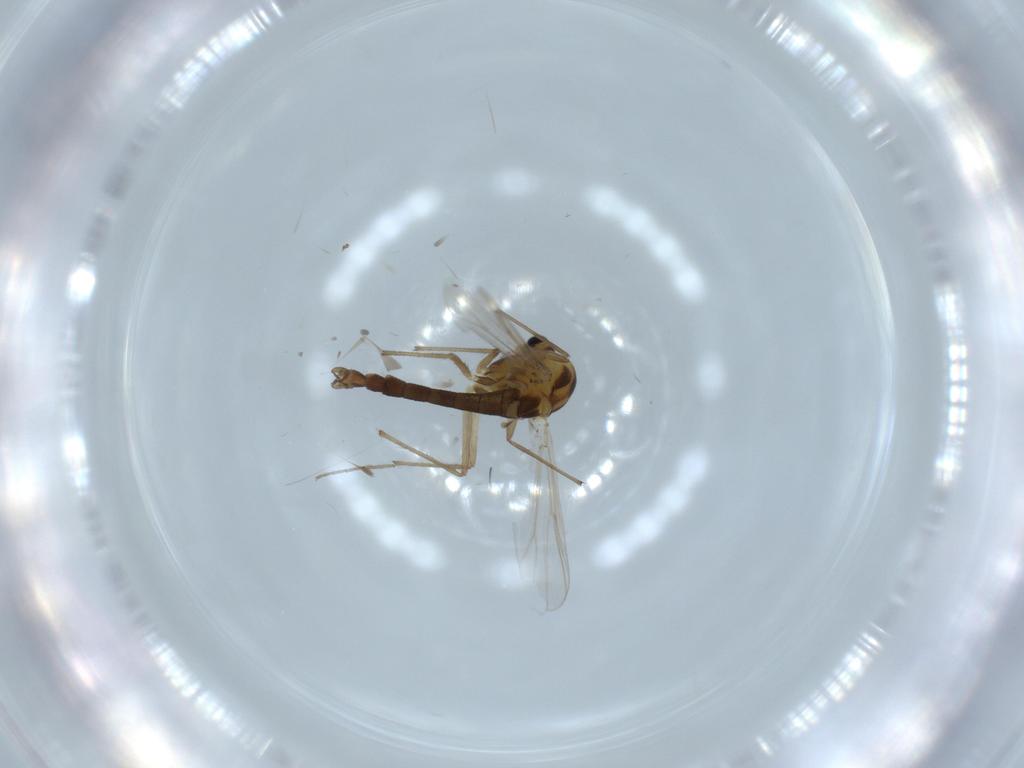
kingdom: Animalia
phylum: Arthropoda
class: Insecta
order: Diptera
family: Chironomidae
